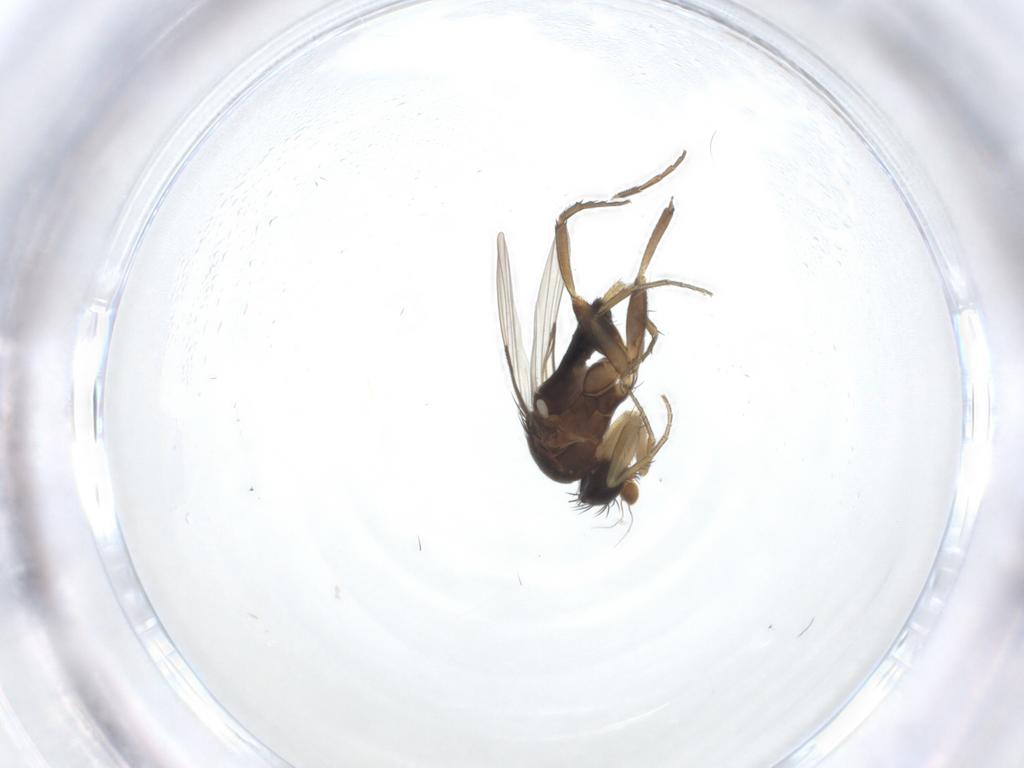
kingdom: Animalia
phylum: Arthropoda
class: Insecta
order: Diptera
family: Phoridae
